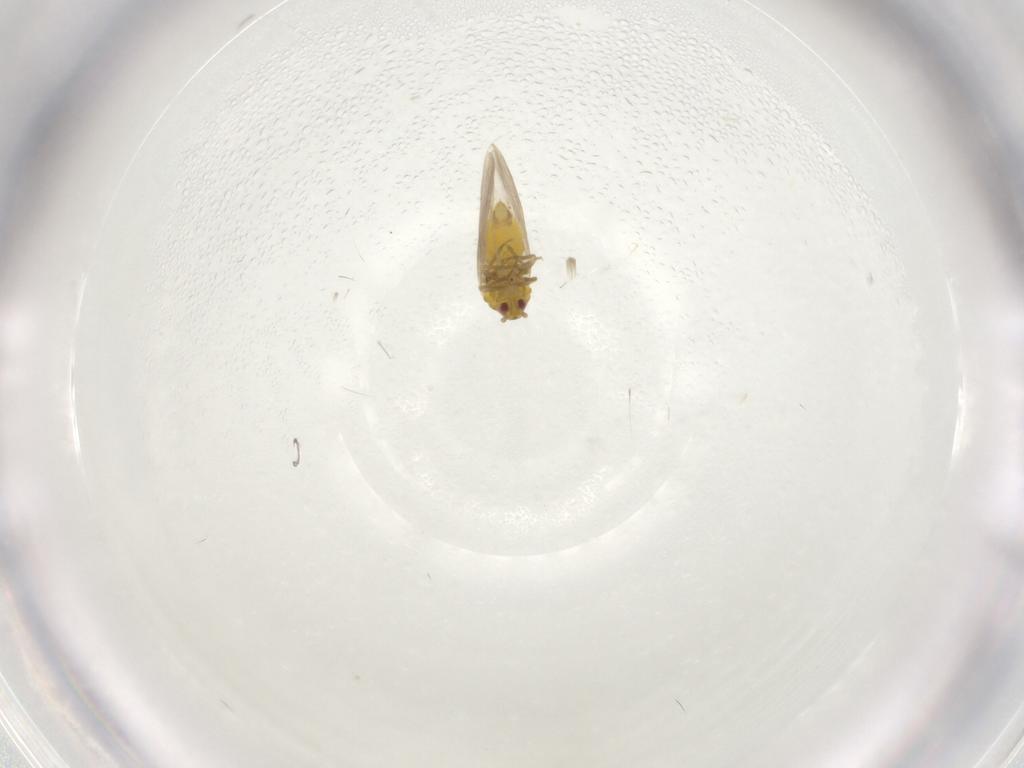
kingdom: Animalia
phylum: Arthropoda
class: Insecta
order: Hemiptera
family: Aleyrodidae
